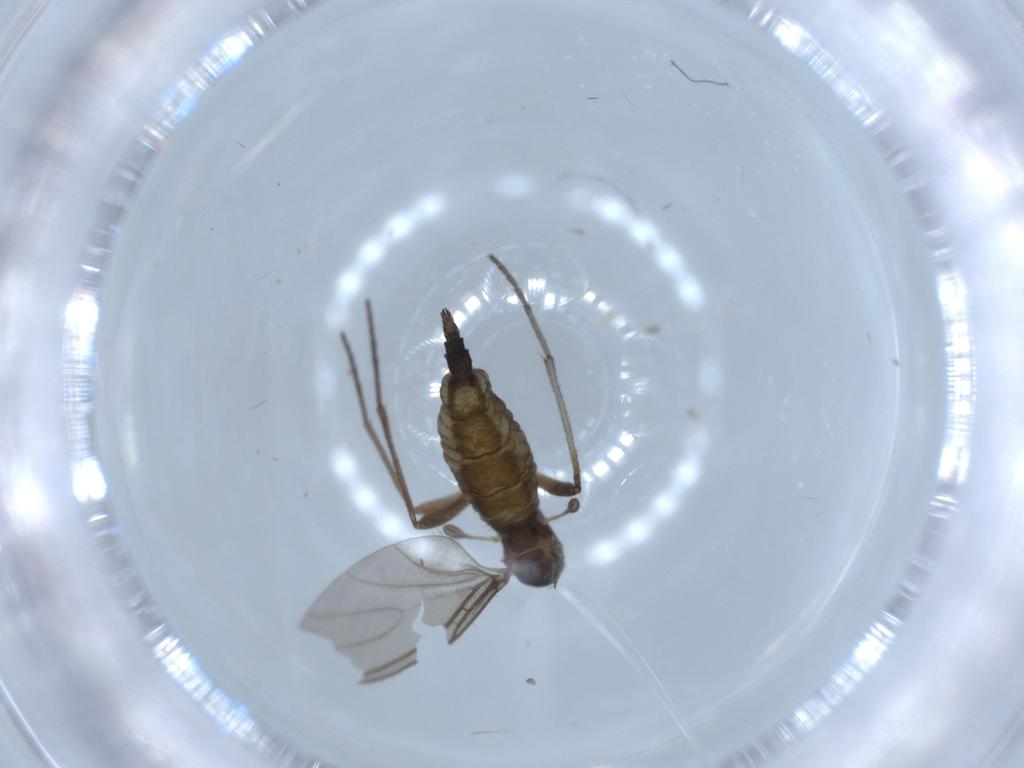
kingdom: Animalia
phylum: Arthropoda
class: Insecta
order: Diptera
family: Sciaridae
